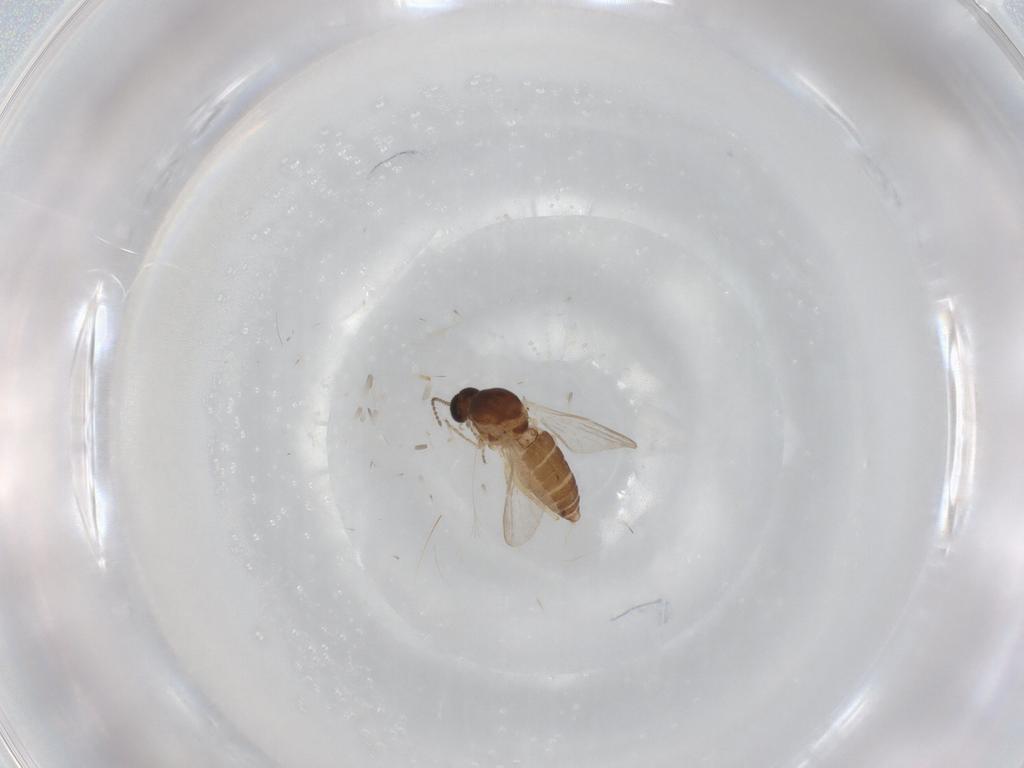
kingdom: Animalia
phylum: Arthropoda
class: Insecta
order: Diptera
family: Ceratopogonidae
